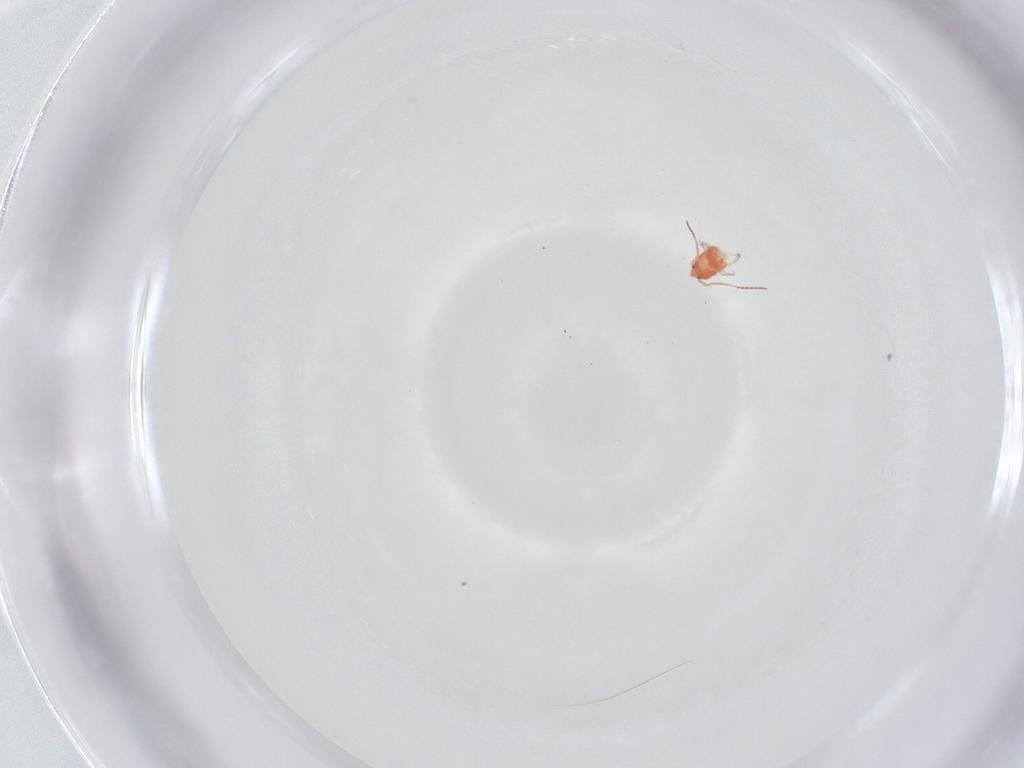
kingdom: Animalia
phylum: Arthropoda
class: Collembola
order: Symphypleona
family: Bourletiellidae
